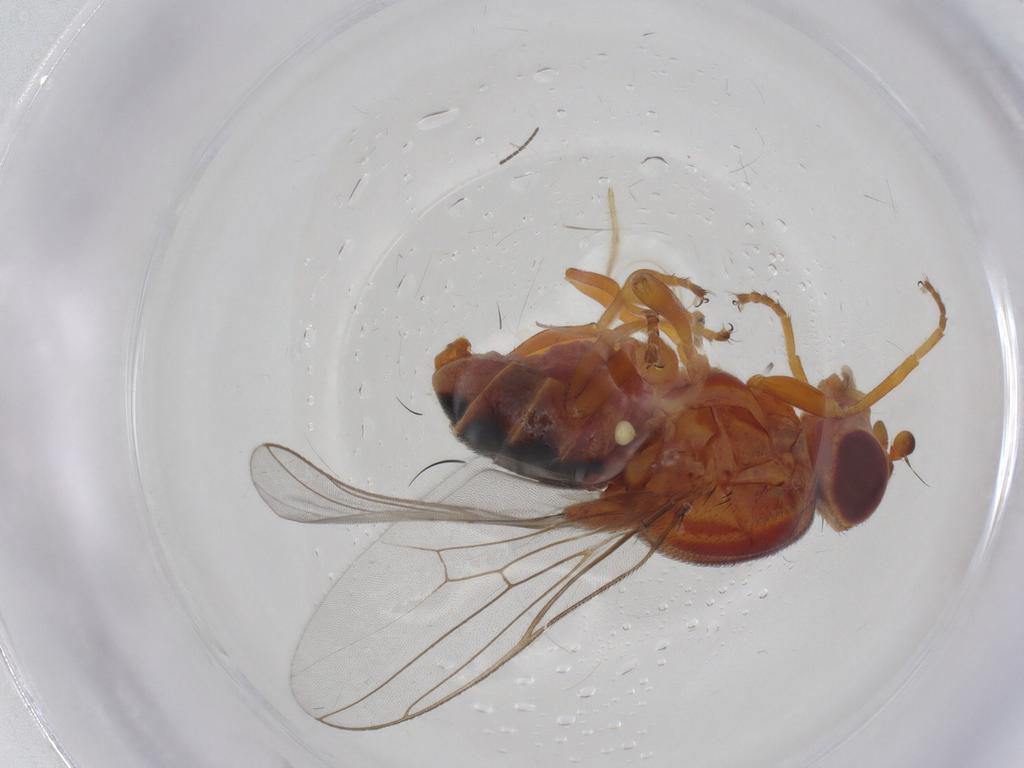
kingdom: Animalia
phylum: Arthropoda
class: Insecta
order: Diptera
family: Chloropidae
